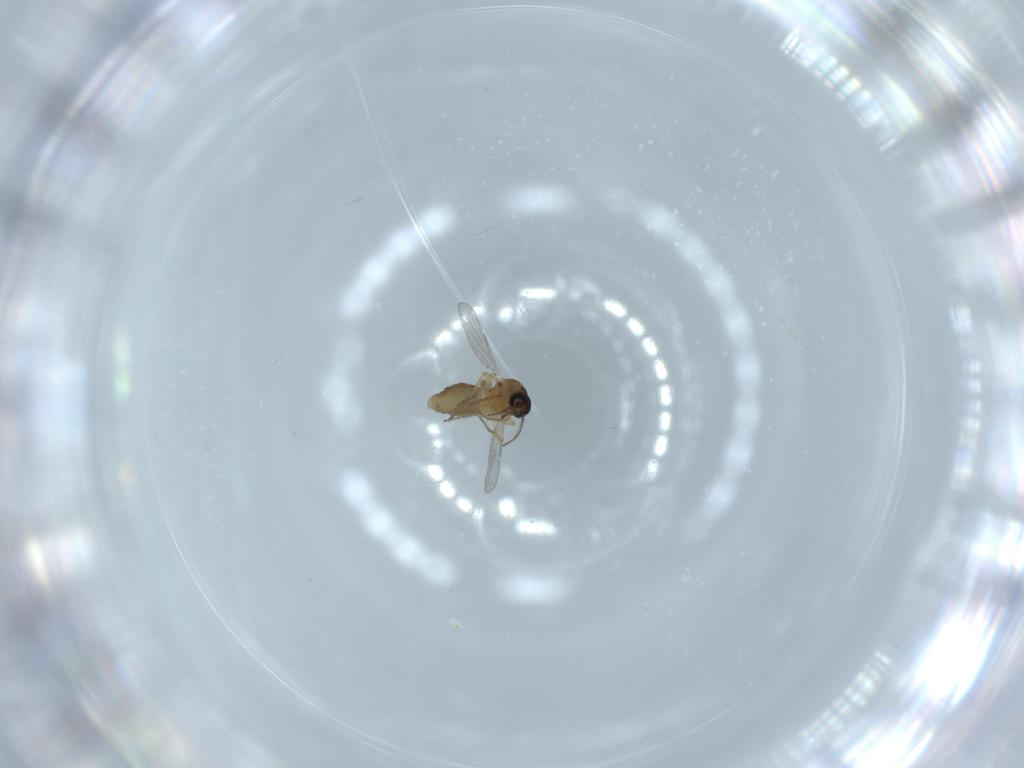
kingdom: Animalia
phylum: Arthropoda
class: Insecta
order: Diptera
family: Ceratopogonidae
